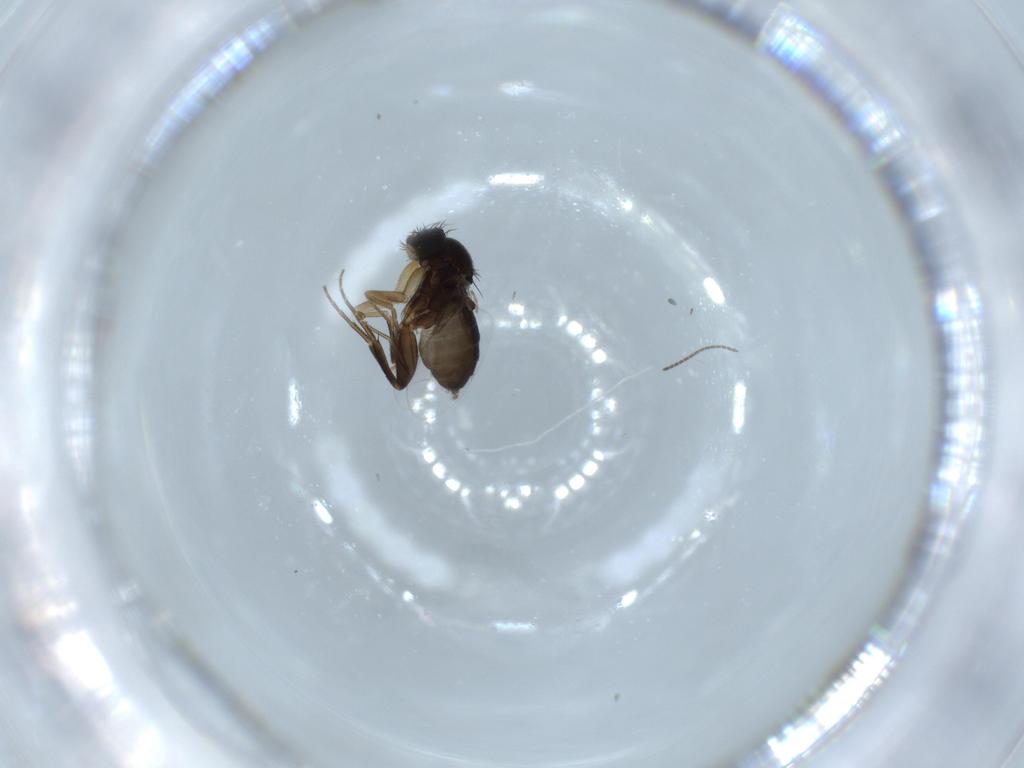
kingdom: Animalia
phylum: Arthropoda
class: Insecta
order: Diptera
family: Phoridae
